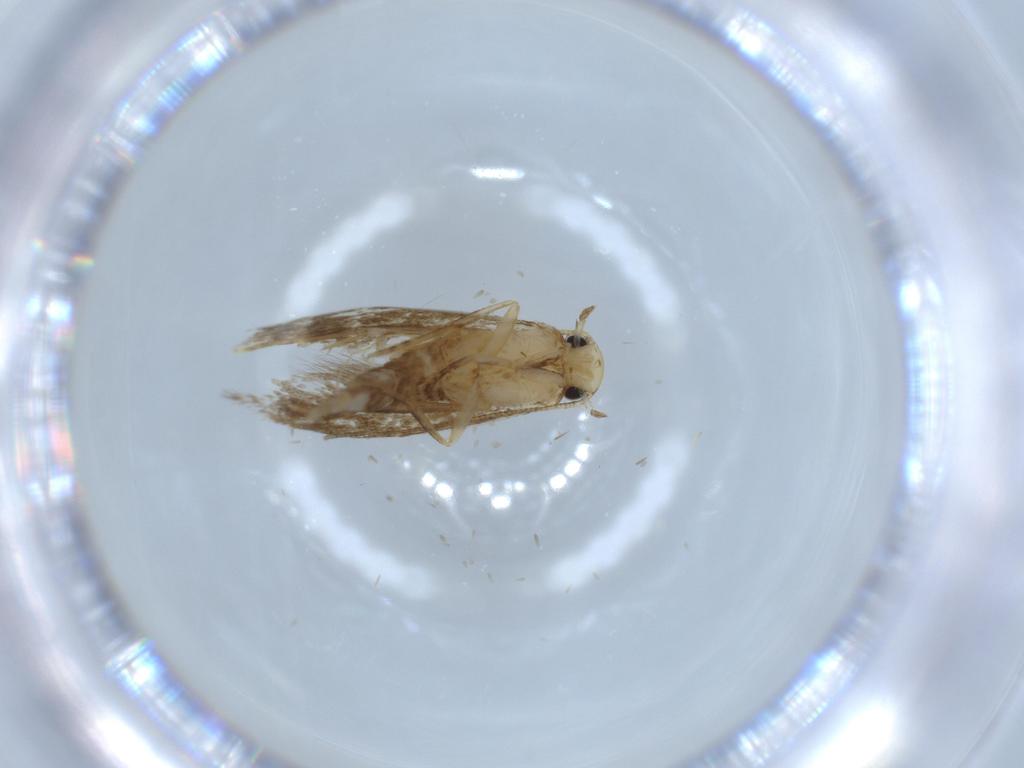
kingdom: Animalia
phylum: Arthropoda
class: Insecta
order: Lepidoptera
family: Tineidae
